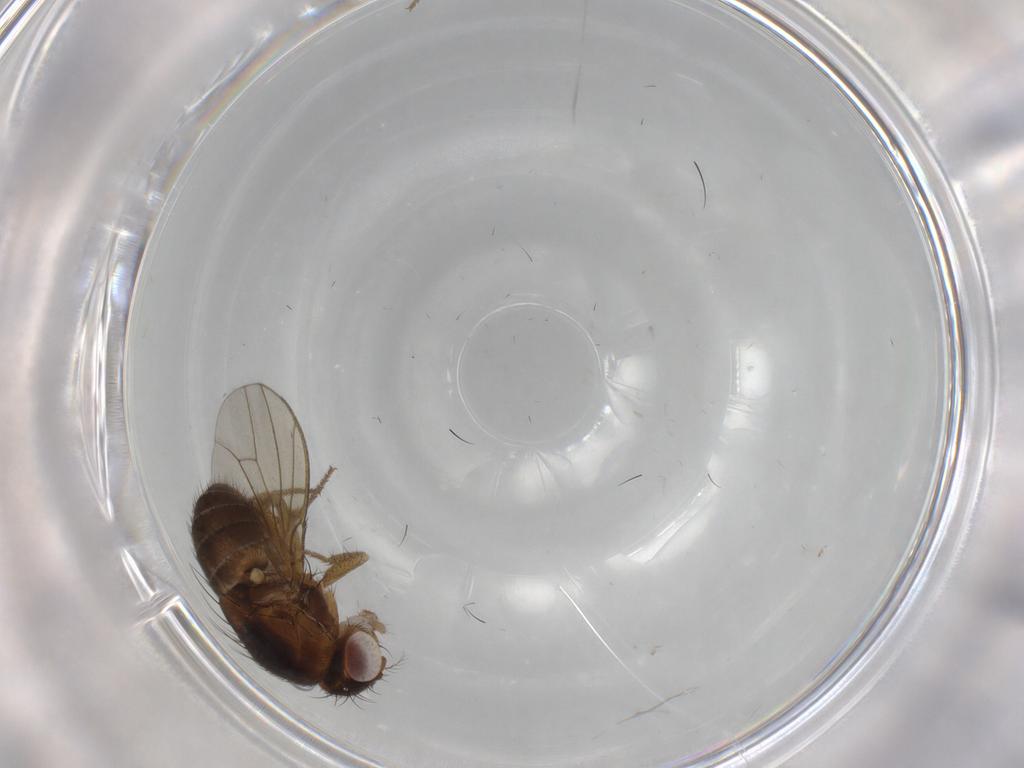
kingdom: Animalia
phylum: Arthropoda
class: Insecta
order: Diptera
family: Drosophilidae
